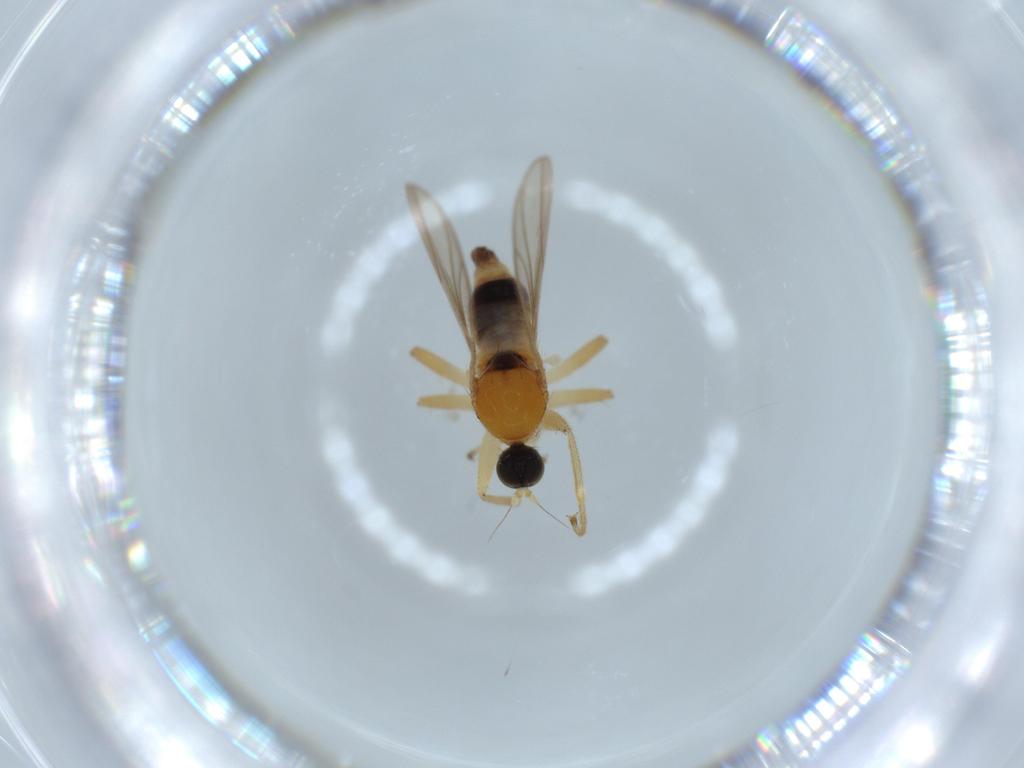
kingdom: Animalia
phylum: Arthropoda
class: Insecta
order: Diptera
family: Hybotidae
